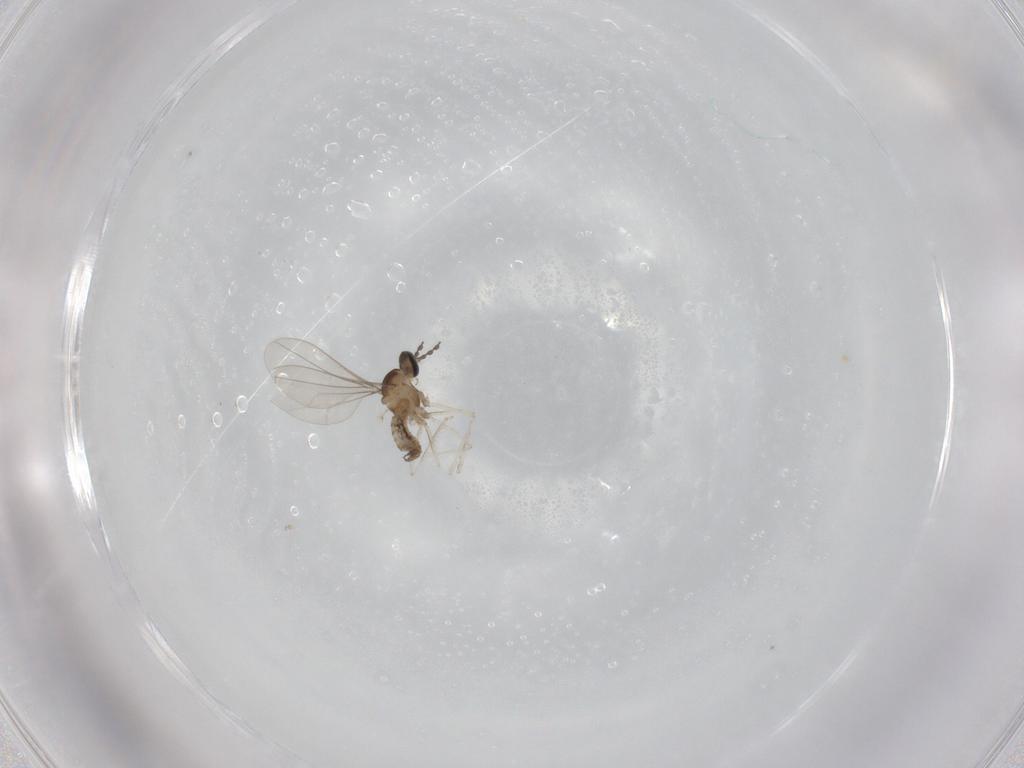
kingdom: Animalia
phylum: Arthropoda
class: Insecta
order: Diptera
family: Cecidomyiidae
